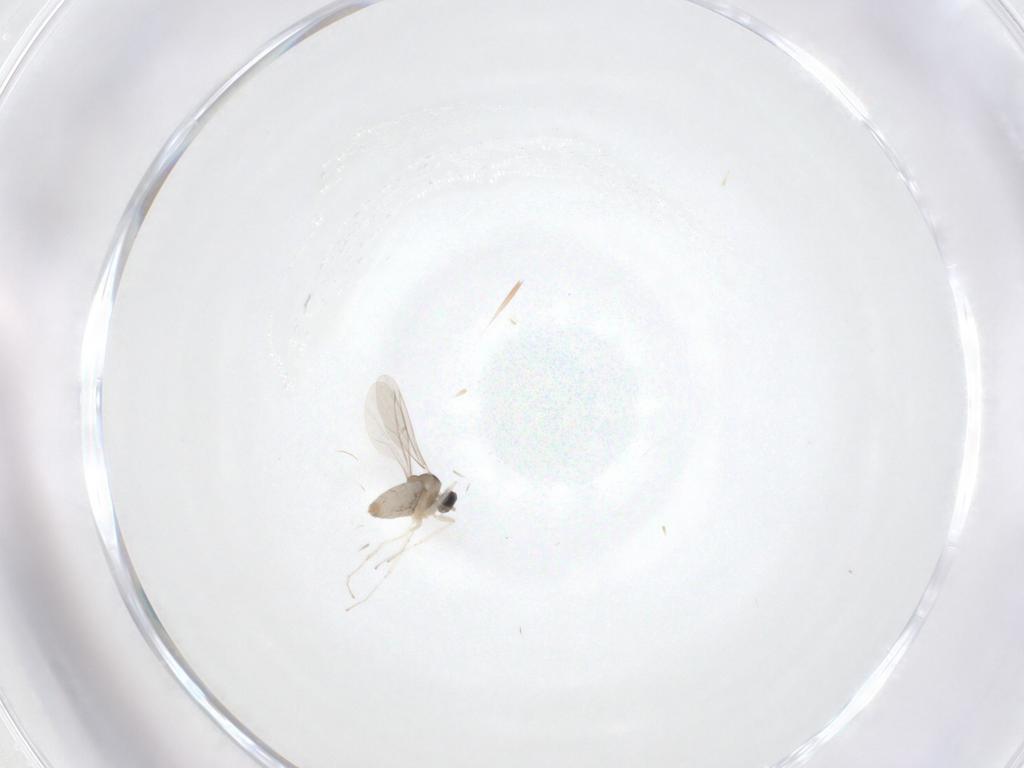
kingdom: Animalia
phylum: Arthropoda
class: Insecta
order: Diptera
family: Cecidomyiidae
